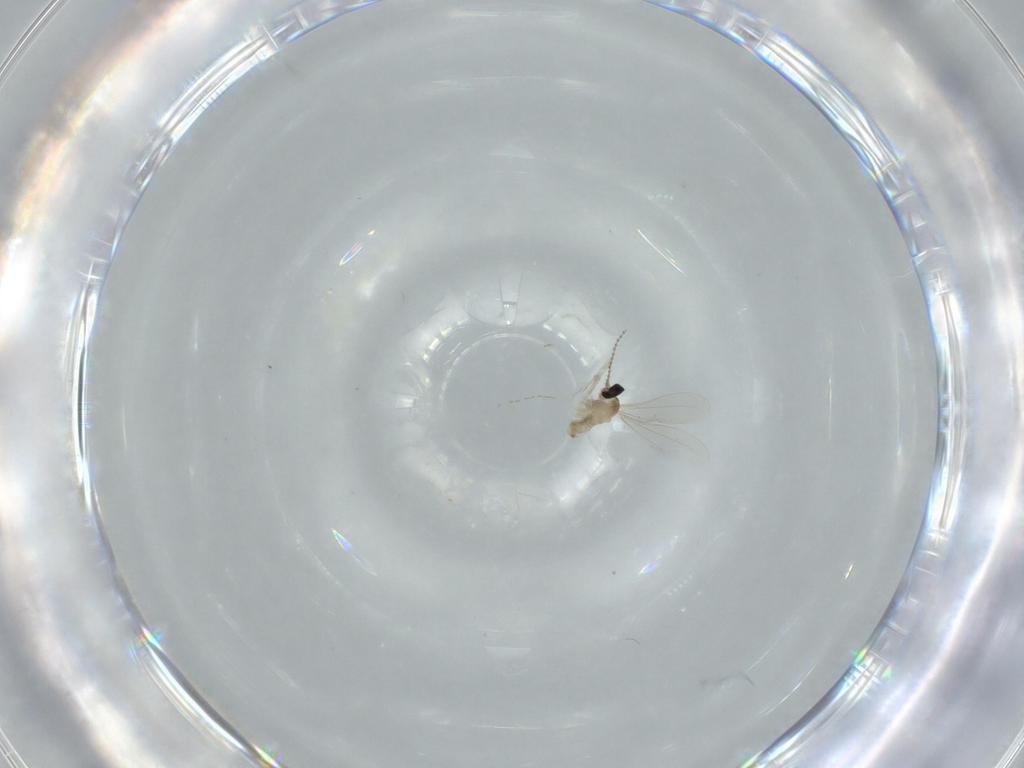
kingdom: Animalia
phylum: Arthropoda
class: Insecta
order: Diptera
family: Cecidomyiidae
